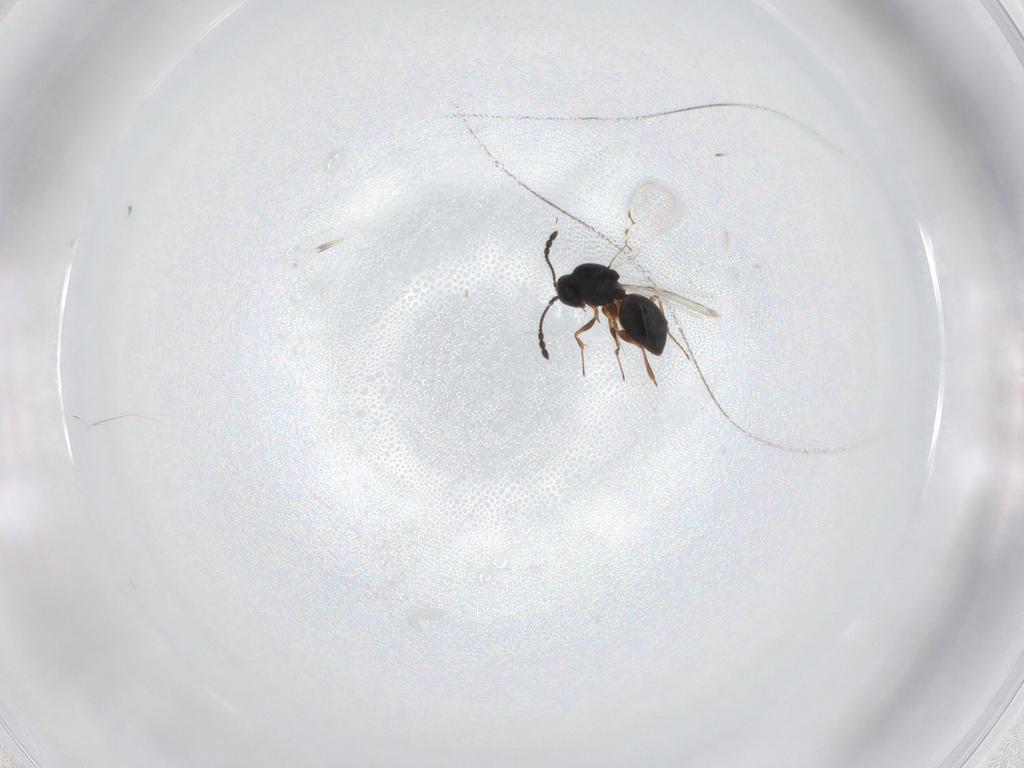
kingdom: Animalia
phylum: Arthropoda
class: Insecta
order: Hymenoptera
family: Figitidae
